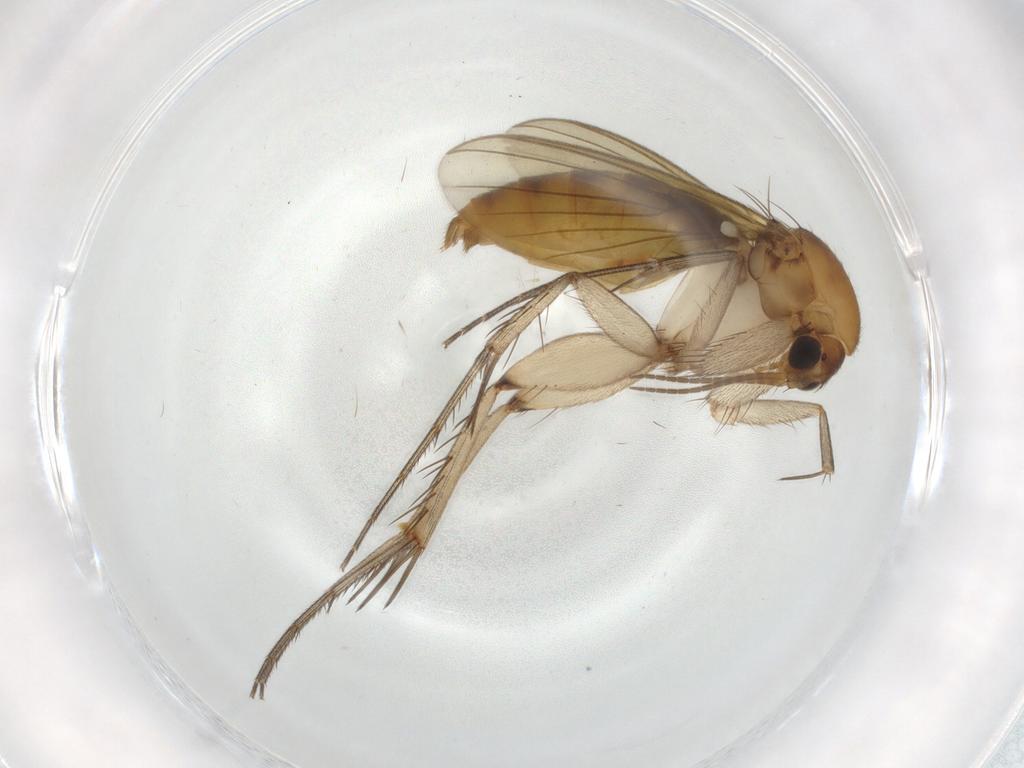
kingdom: Animalia
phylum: Arthropoda
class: Insecta
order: Diptera
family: Mycetophilidae
